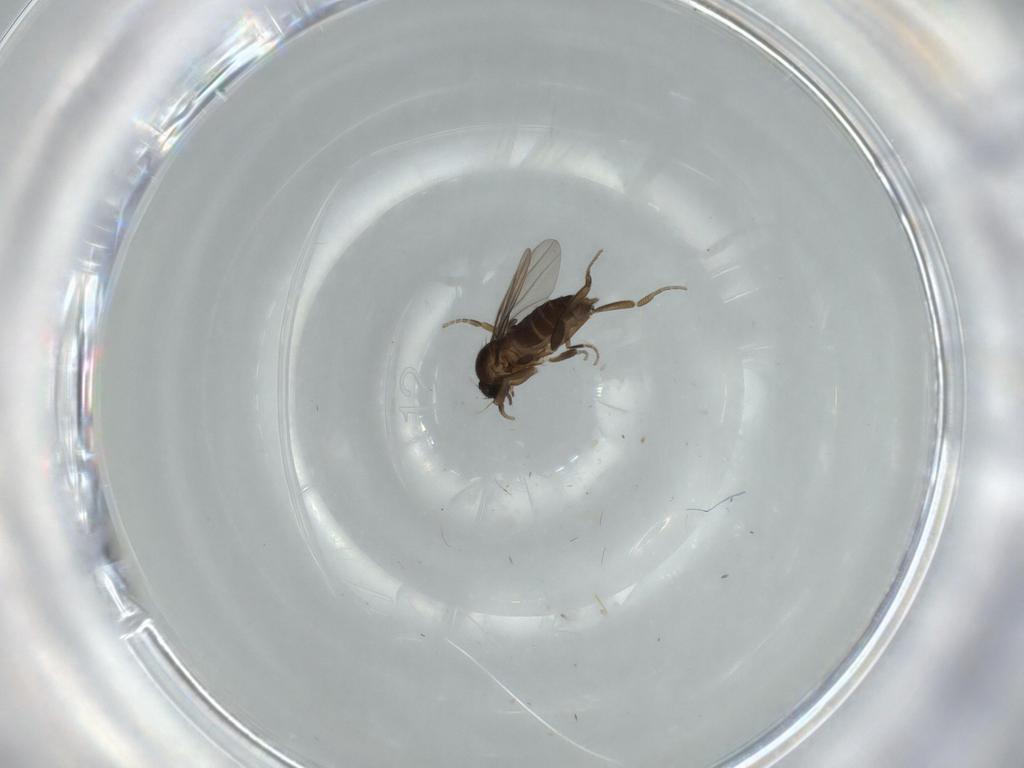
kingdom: Animalia
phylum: Arthropoda
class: Insecta
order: Diptera
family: Phoridae
